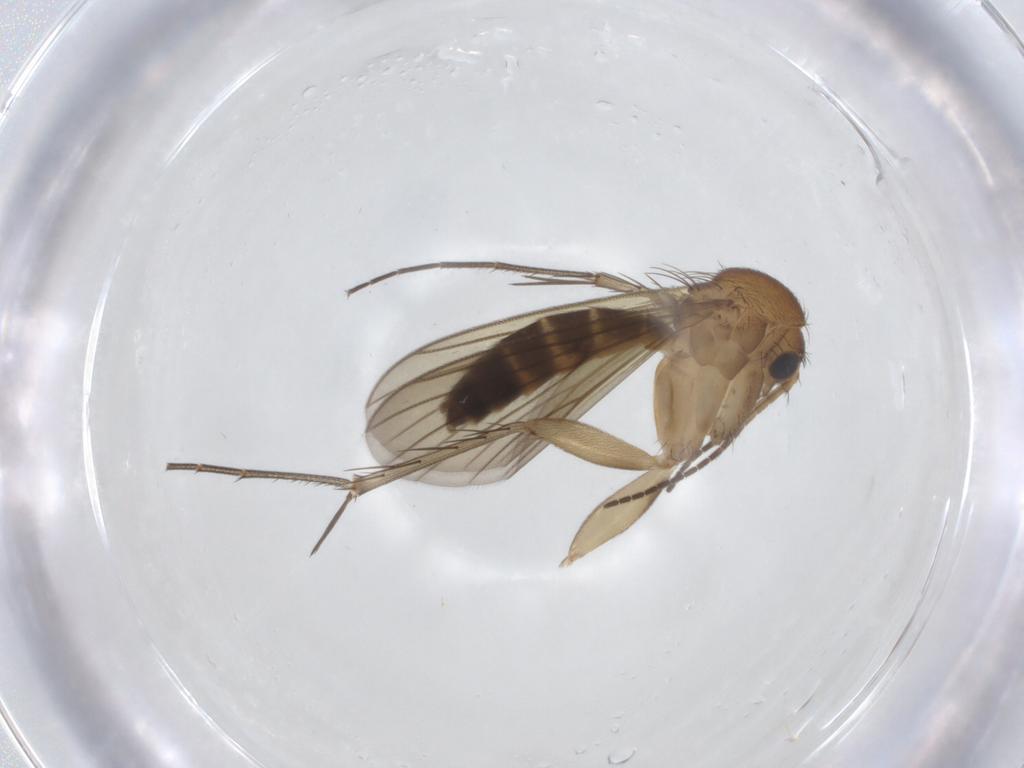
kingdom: Animalia
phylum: Arthropoda
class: Insecta
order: Diptera
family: Mycetophilidae
